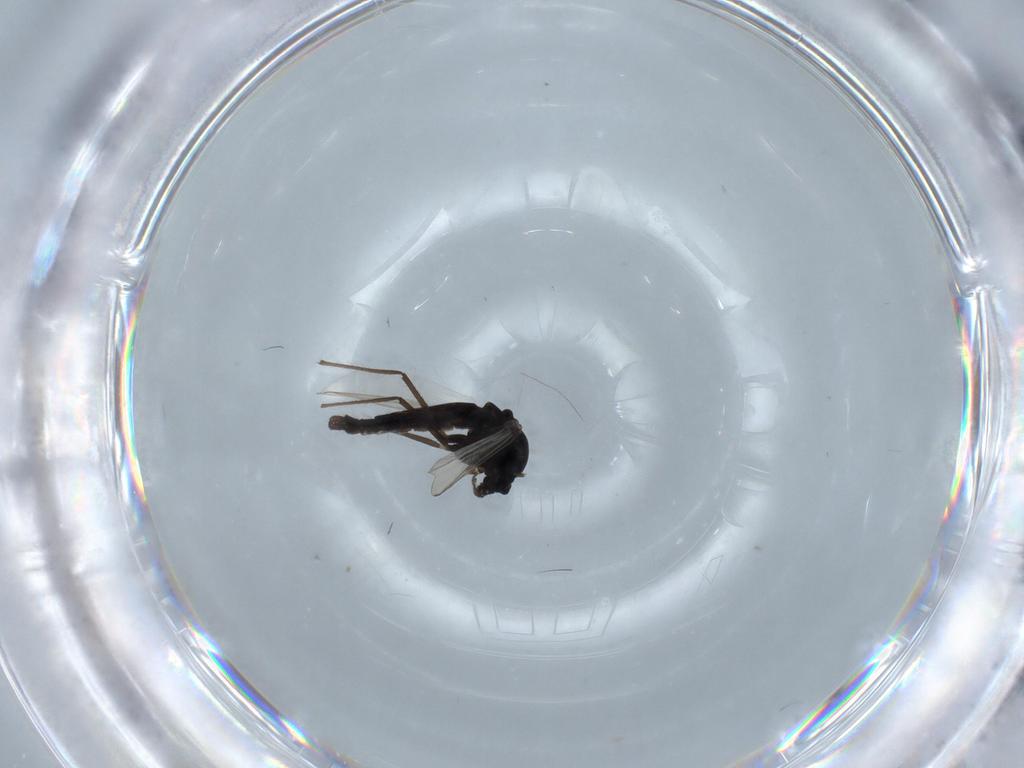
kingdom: Animalia
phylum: Arthropoda
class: Insecta
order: Diptera
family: Chironomidae
